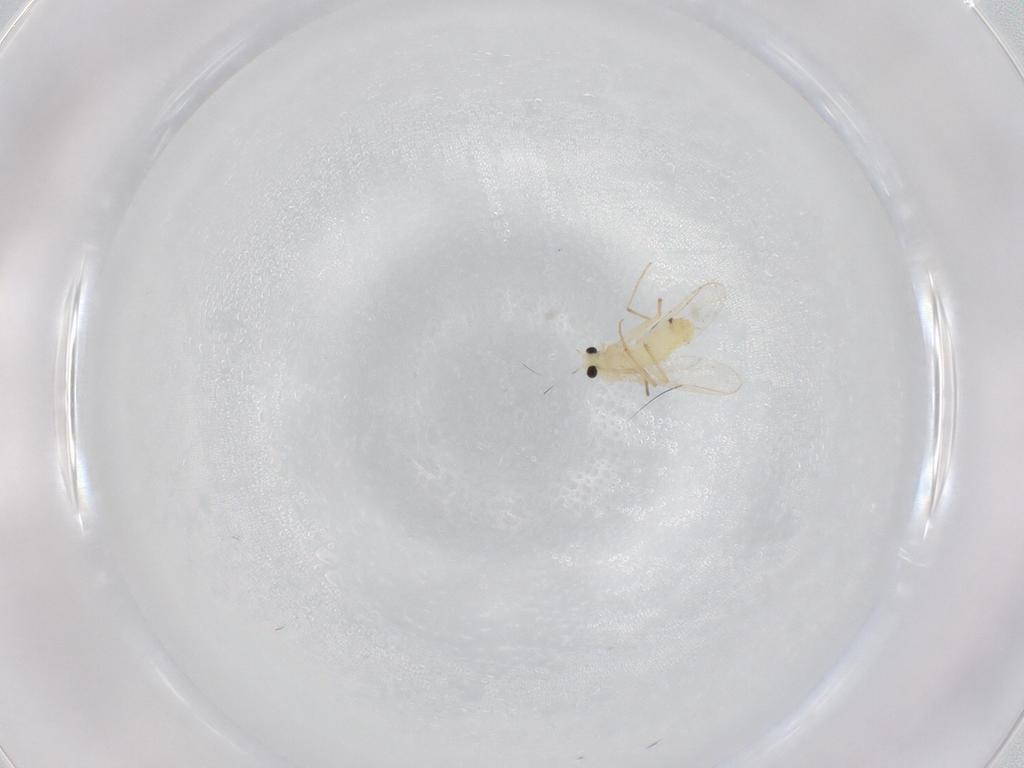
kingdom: Animalia
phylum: Arthropoda
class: Insecta
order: Diptera
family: Chironomidae
